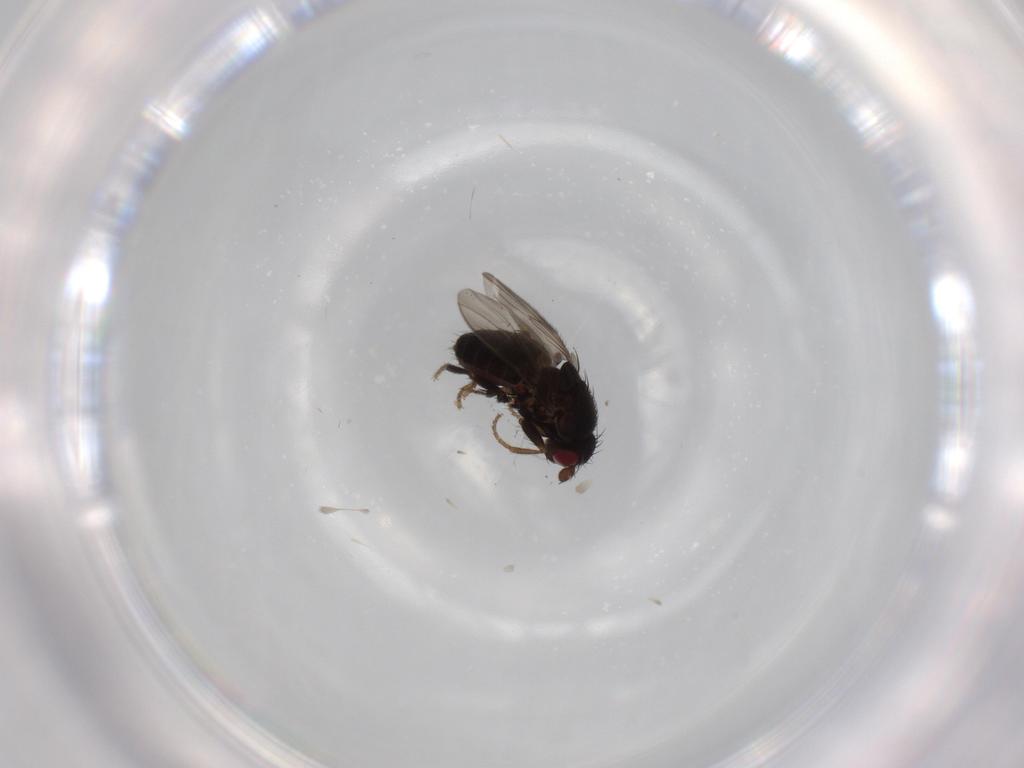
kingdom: Animalia
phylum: Arthropoda
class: Insecta
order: Diptera
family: Sphaeroceridae
